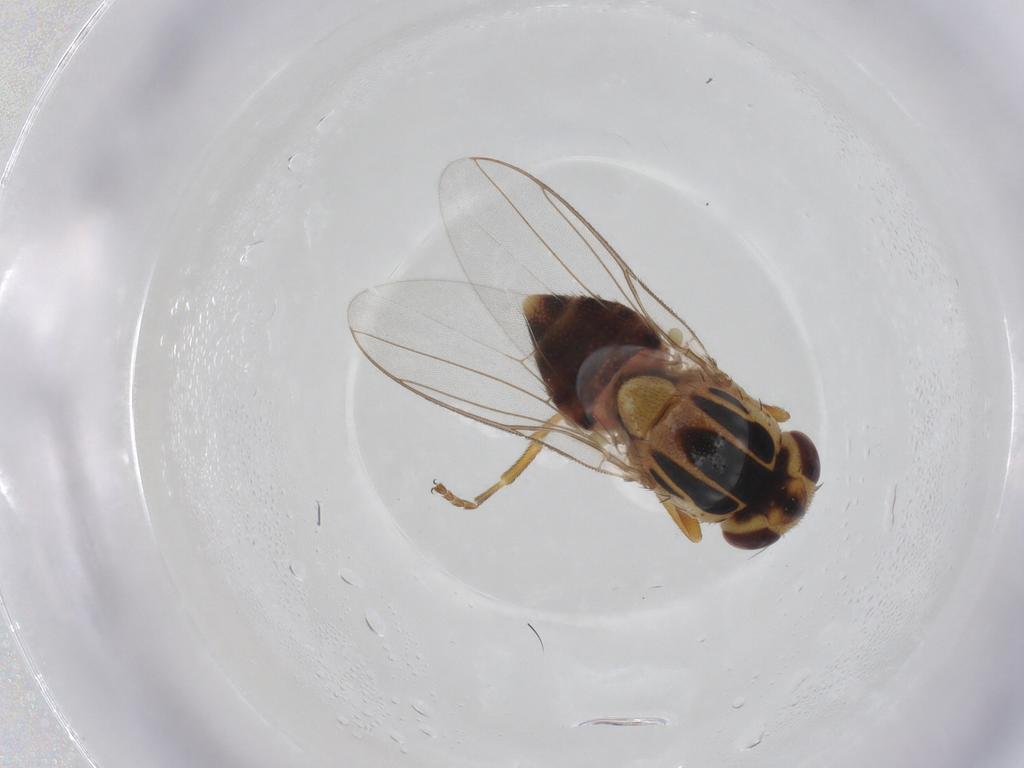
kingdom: Animalia
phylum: Arthropoda
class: Insecta
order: Diptera
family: Chloropidae
